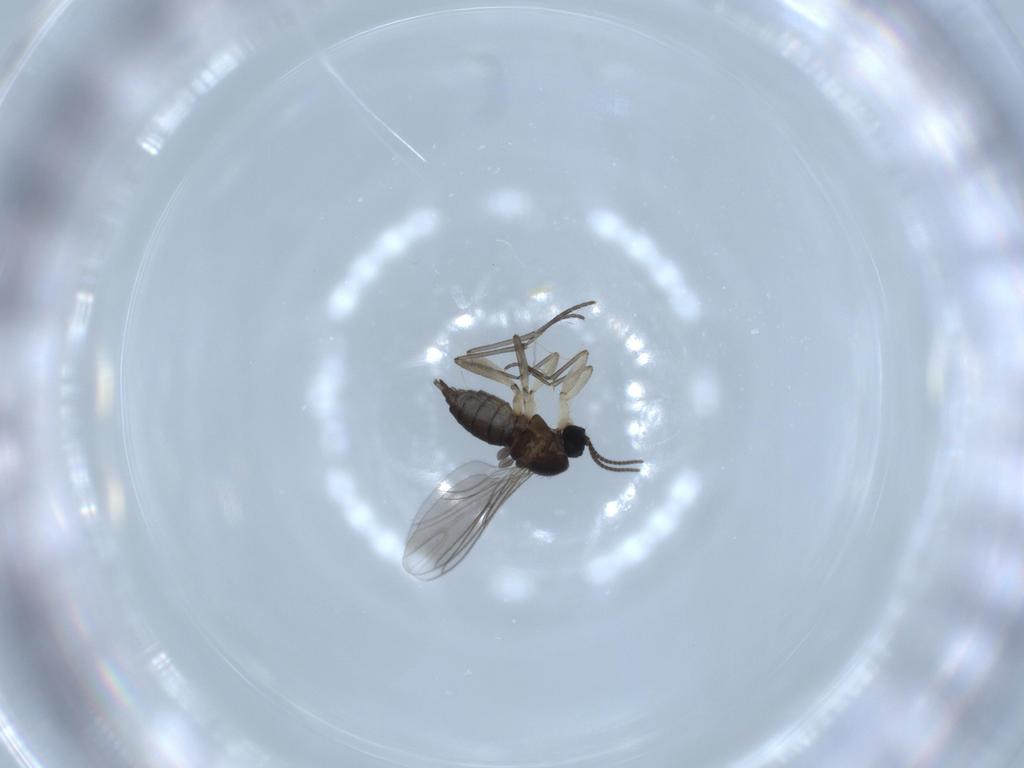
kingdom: Animalia
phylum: Arthropoda
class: Insecta
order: Diptera
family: Sciaridae
